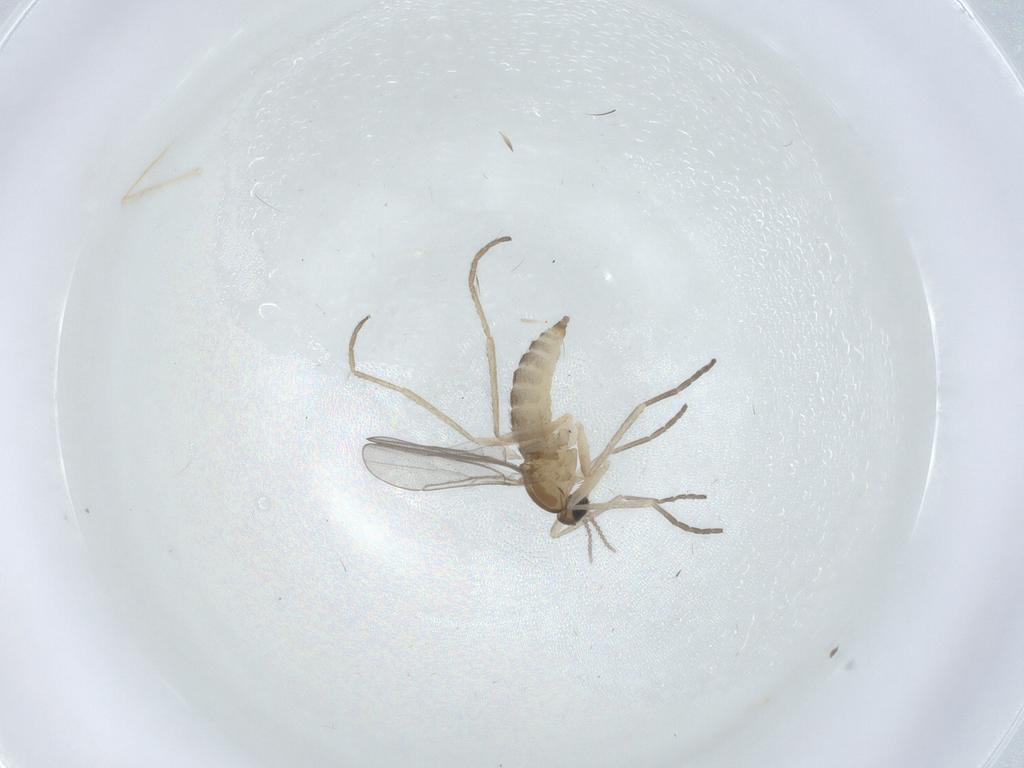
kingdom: Animalia
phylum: Arthropoda
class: Insecta
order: Diptera
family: Cecidomyiidae
